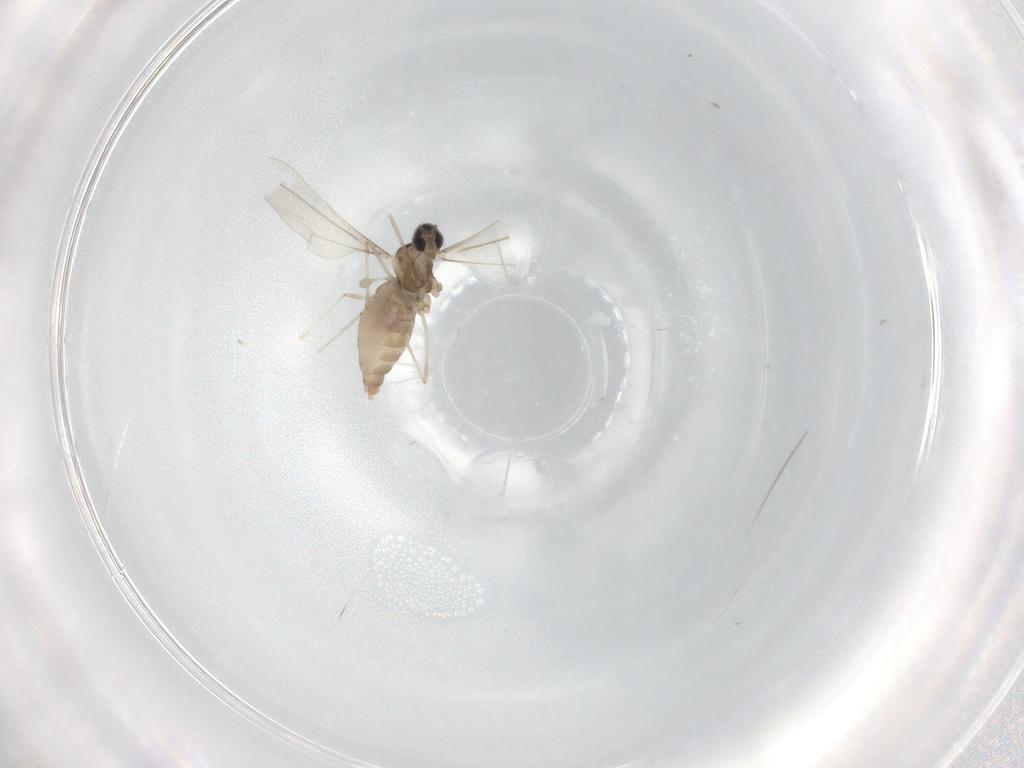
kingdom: Animalia
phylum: Arthropoda
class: Insecta
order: Diptera
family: Cecidomyiidae
